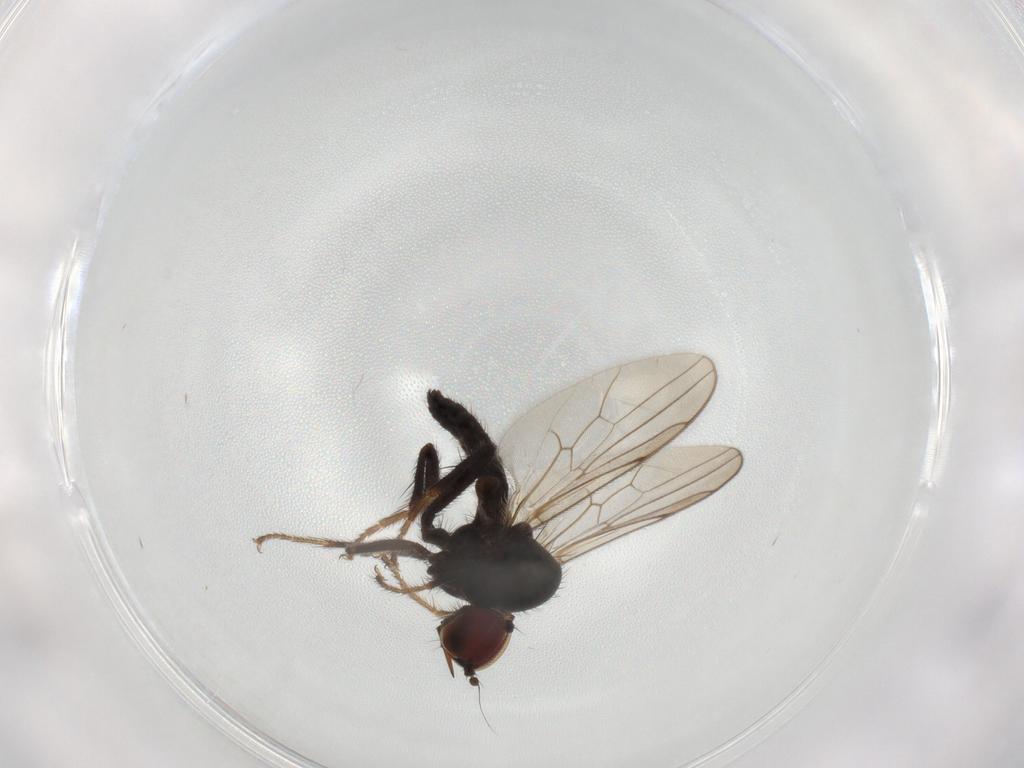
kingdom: Animalia
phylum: Arthropoda
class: Insecta
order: Diptera
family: Hybotidae
